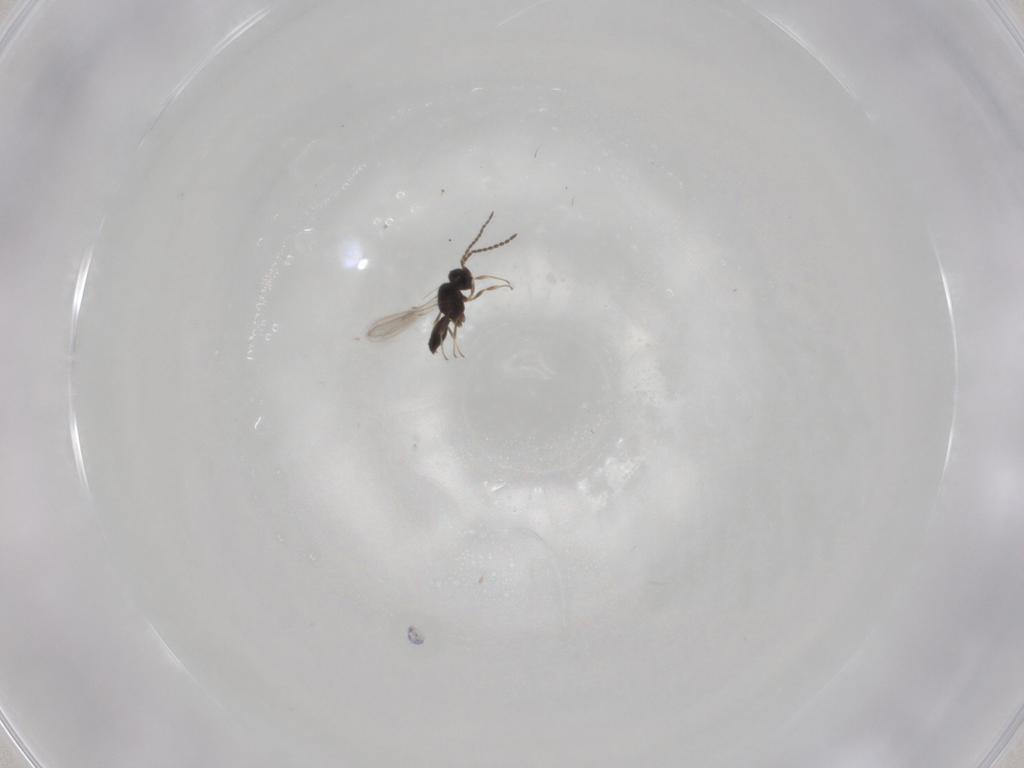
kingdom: Animalia
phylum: Arthropoda
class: Insecta
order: Hymenoptera
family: Scelionidae
